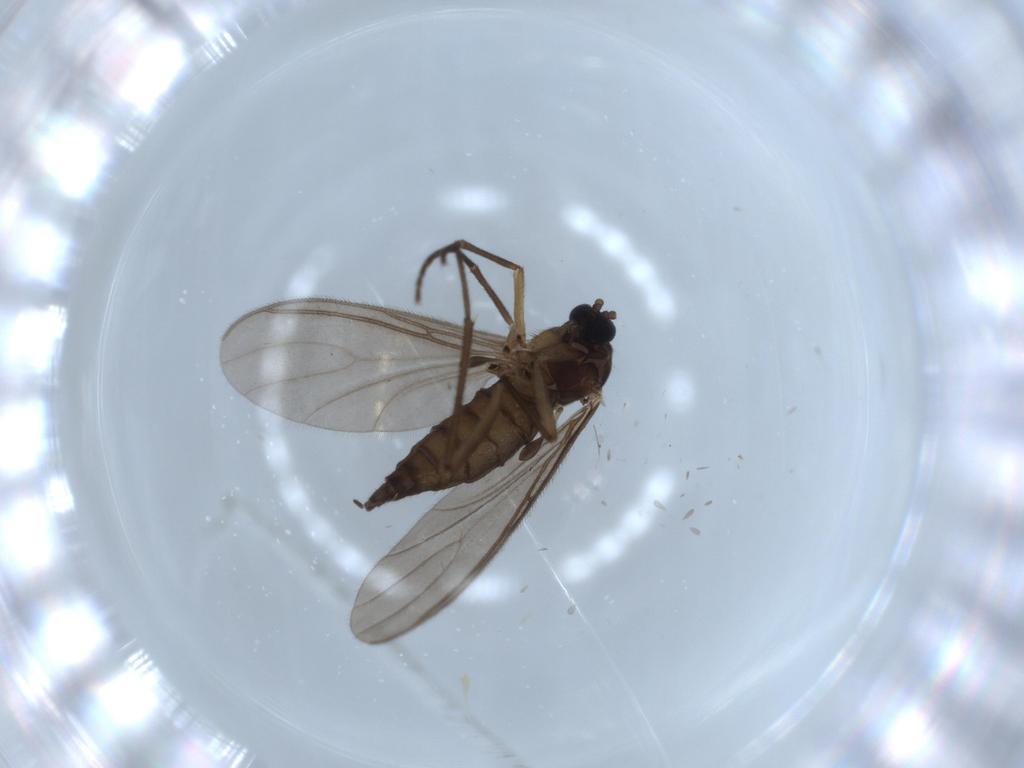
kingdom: Animalia
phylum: Arthropoda
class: Insecta
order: Diptera
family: Sciaridae
